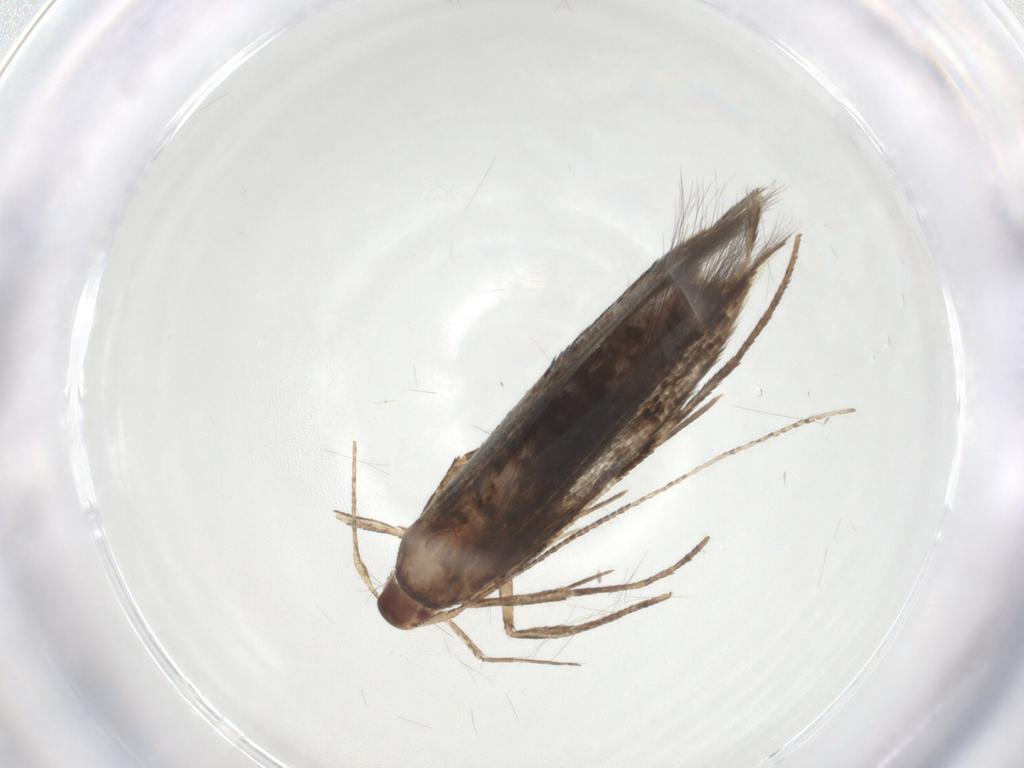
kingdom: Animalia
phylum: Arthropoda
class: Insecta
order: Lepidoptera
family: Cosmopterigidae
